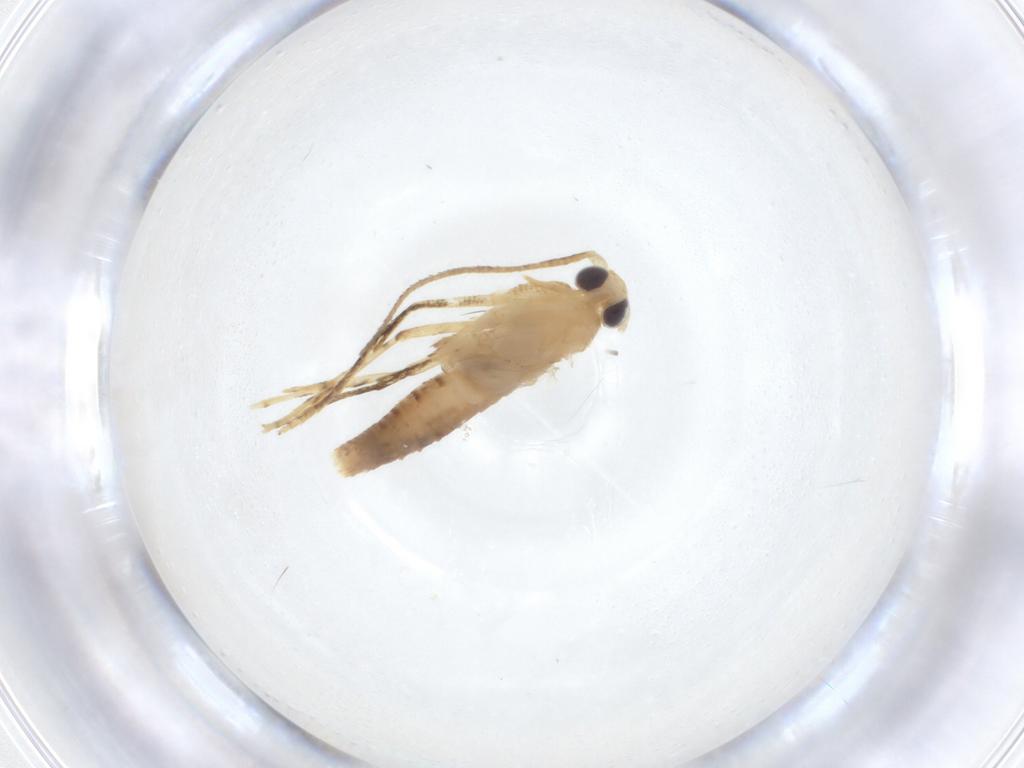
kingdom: Animalia
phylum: Arthropoda
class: Insecta
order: Lepidoptera
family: Argyresthiidae
